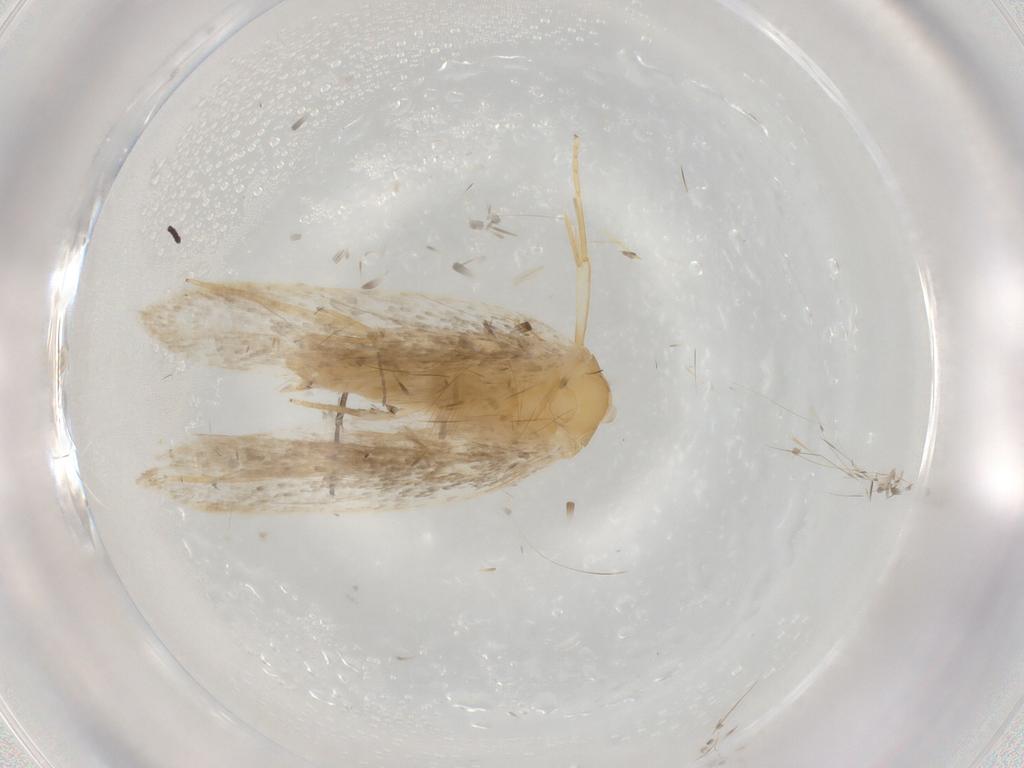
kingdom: Animalia
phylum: Arthropoda
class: Insecta
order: Lepidoptera
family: Autostichidae
